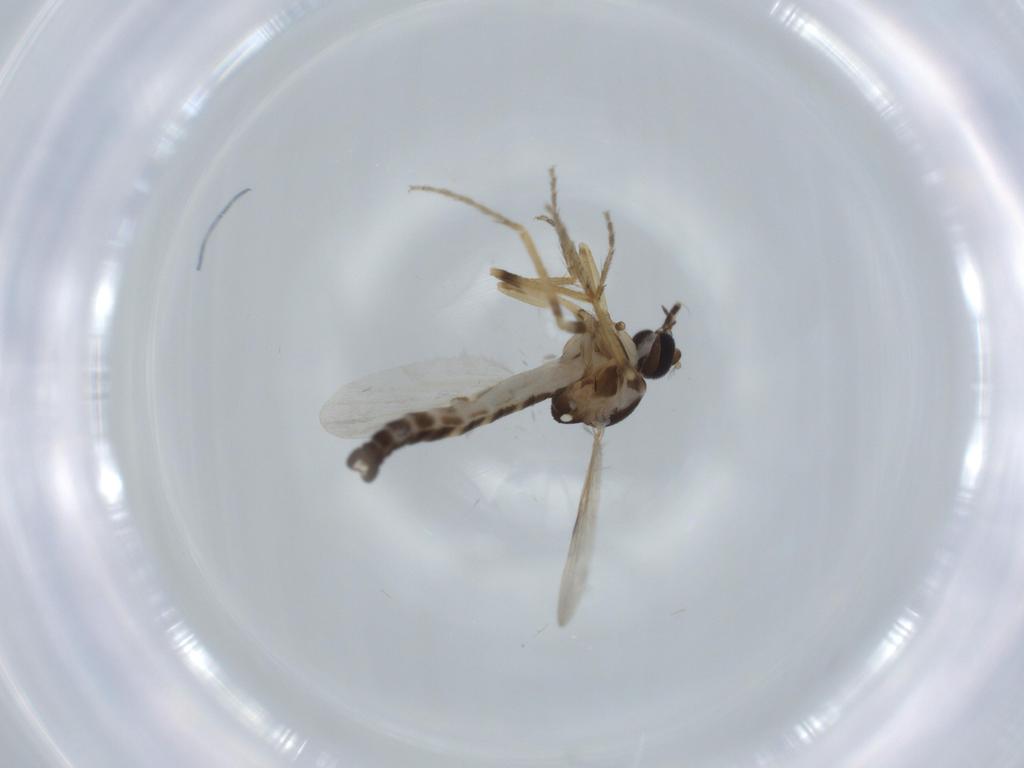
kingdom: Animalia
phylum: Arthropoda
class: Insecta
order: Diptera
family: Ceratopogonidae
